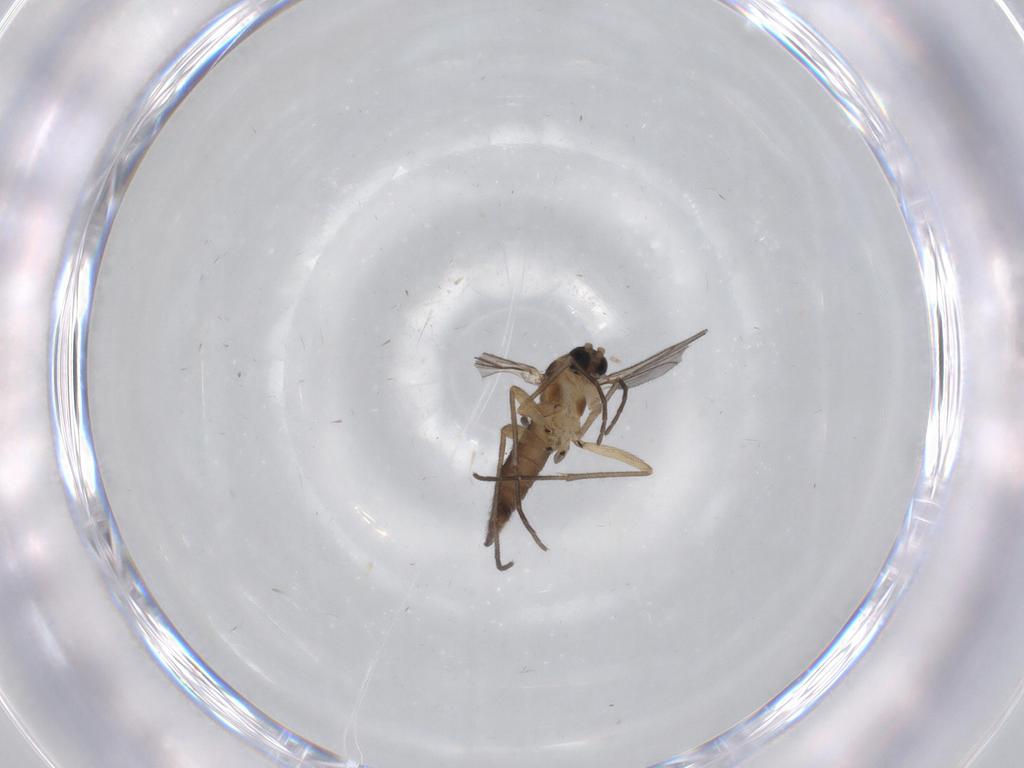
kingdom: Animalia
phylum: Arthropoda
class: Insecta
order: Diptera
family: Sciaridae
